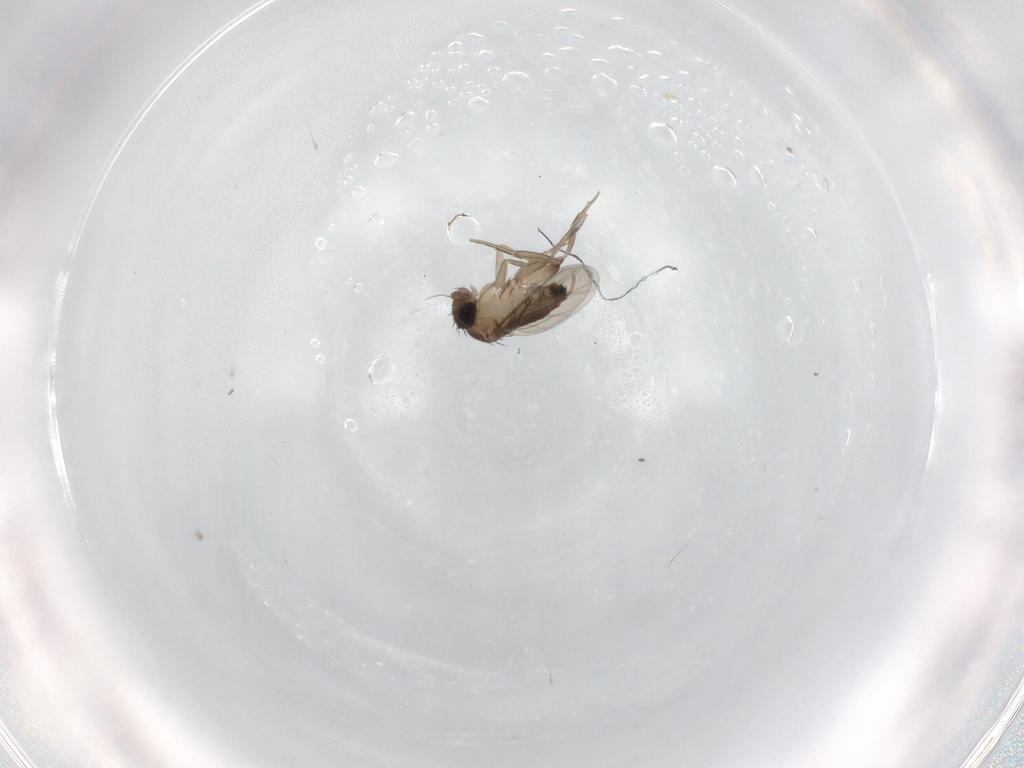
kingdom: Animalia
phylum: Arthropoda
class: Insecta
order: Diptera
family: Phoridae
